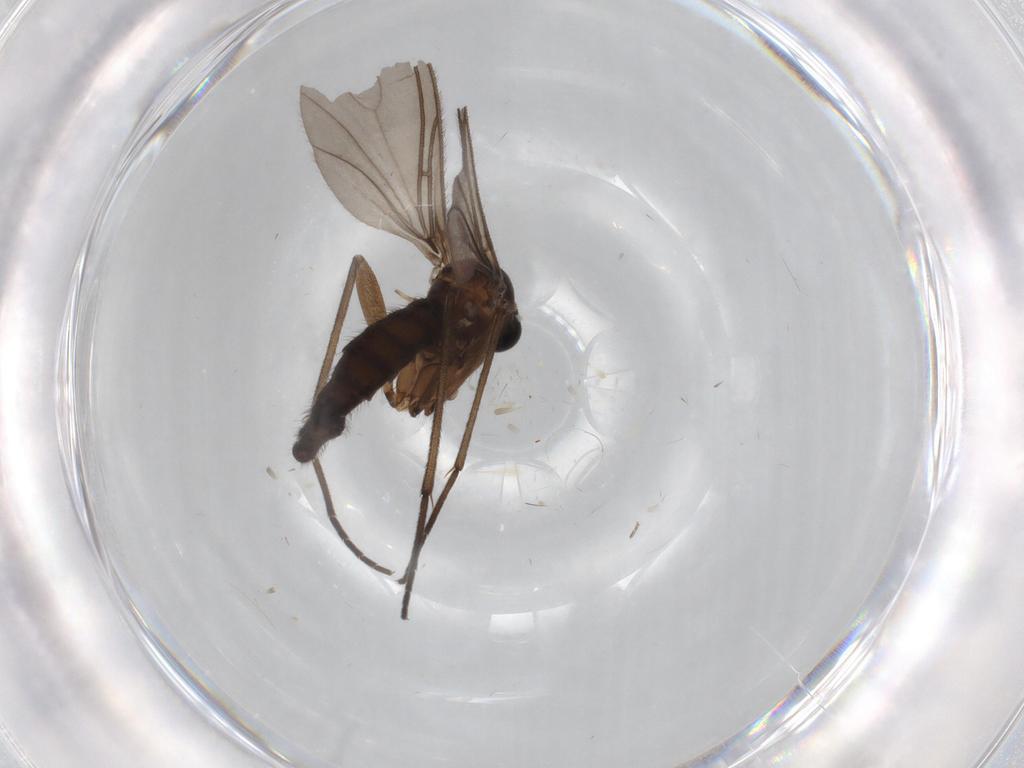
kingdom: Animalia
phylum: Arthropoda
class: Insecta
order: Diptera
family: Sciaridae
